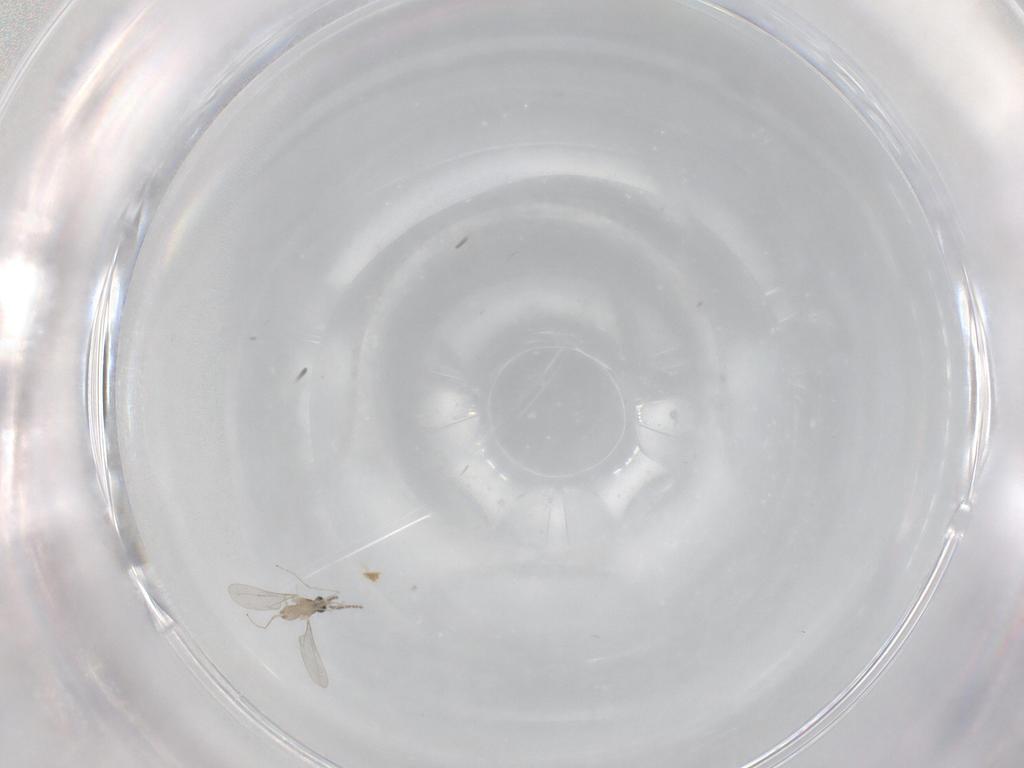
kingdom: Animalia
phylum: Arthropoda
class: Insecta
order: Diptera
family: Cecidomyiidae
